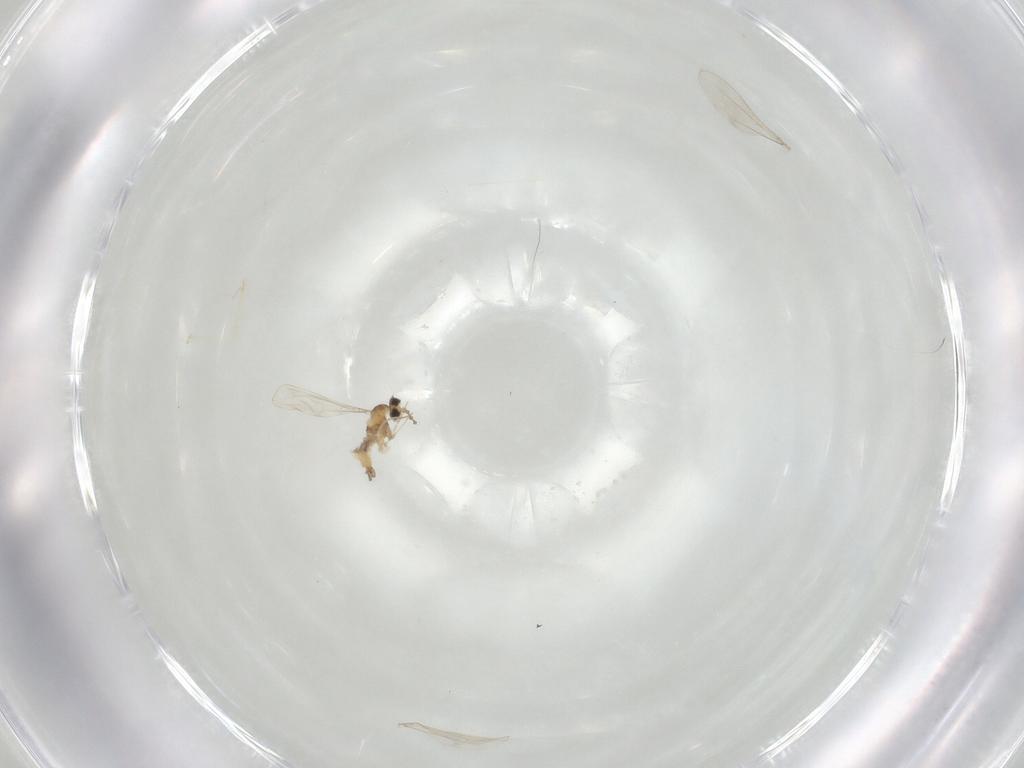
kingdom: Animalia
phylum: Arthropoda
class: Insecta
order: Diptera
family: Cecidomyiidae
